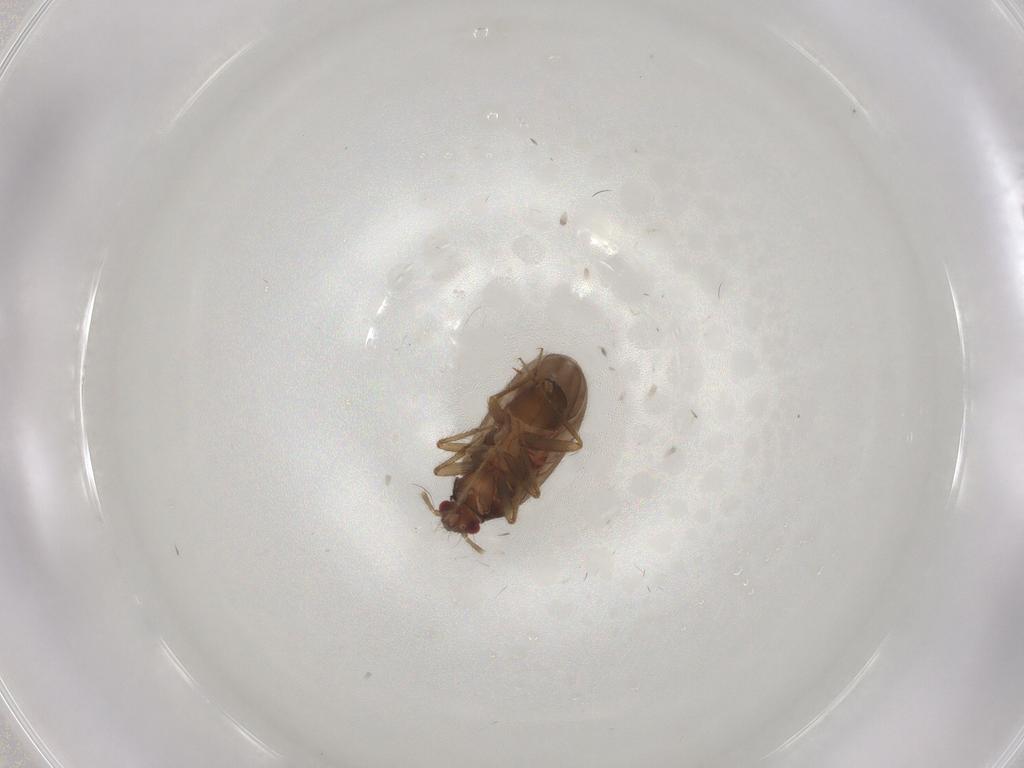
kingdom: Animalia
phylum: Arthropoda
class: Insecta
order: Hemiptera
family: Ceratocombidae
